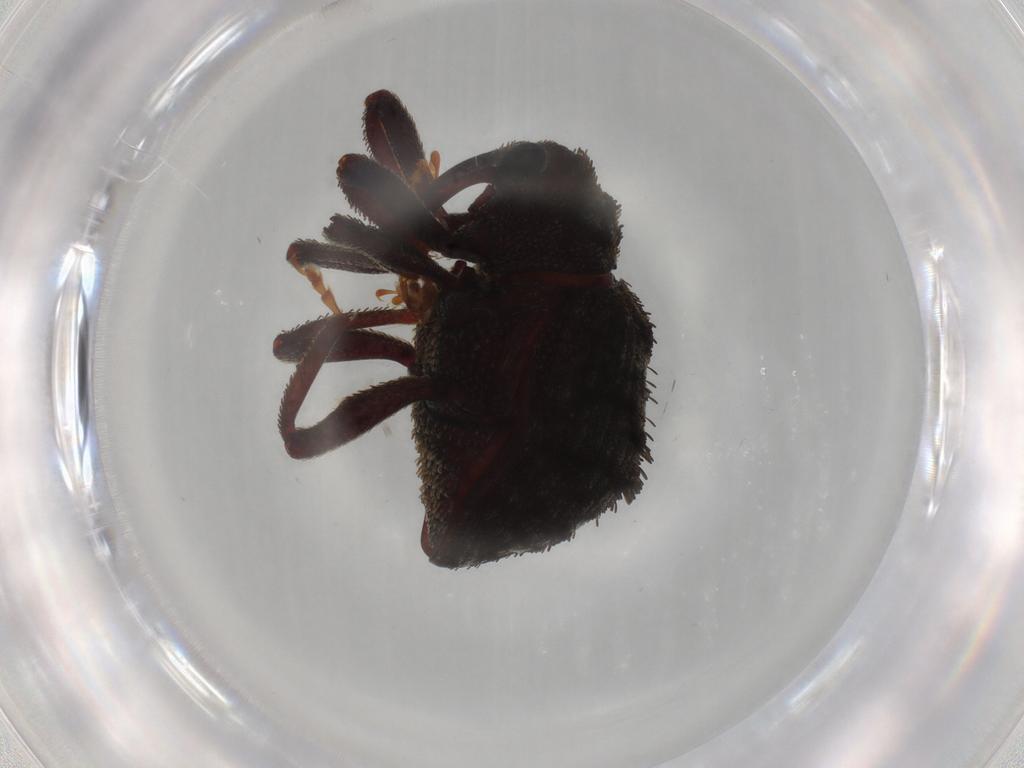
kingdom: Animalia
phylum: Arthropoda
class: Insecta
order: Coleoptera
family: Curculionidae
